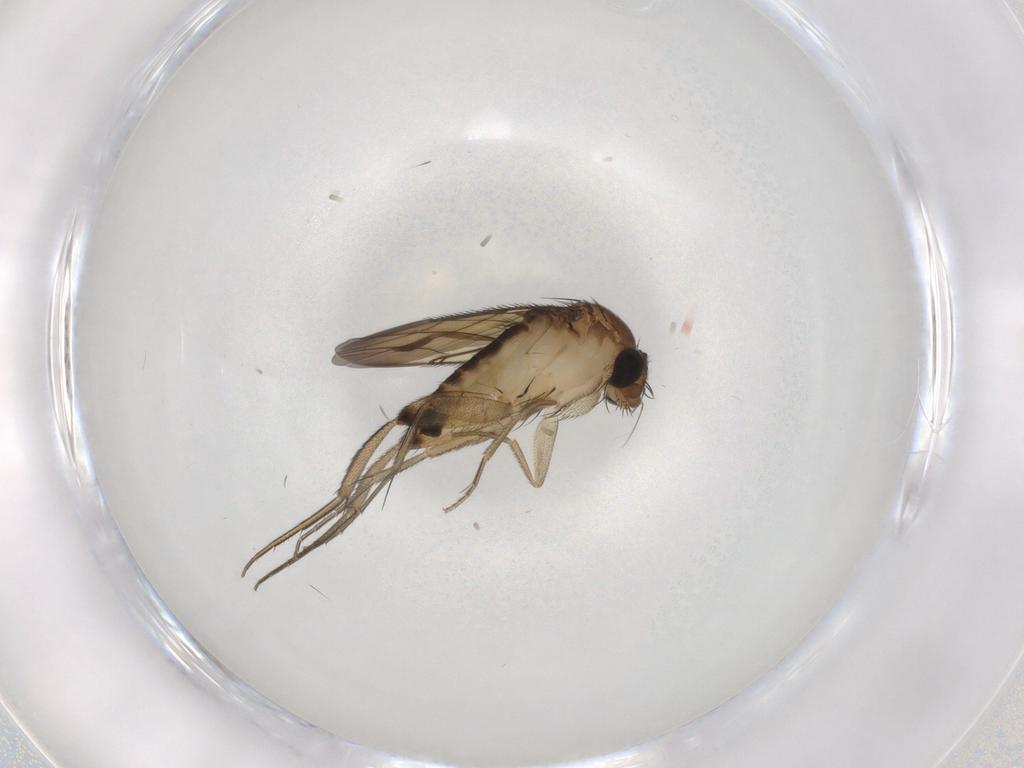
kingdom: Animalia
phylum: Arthropoda
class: Insecta
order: Diptera
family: Phoridae
